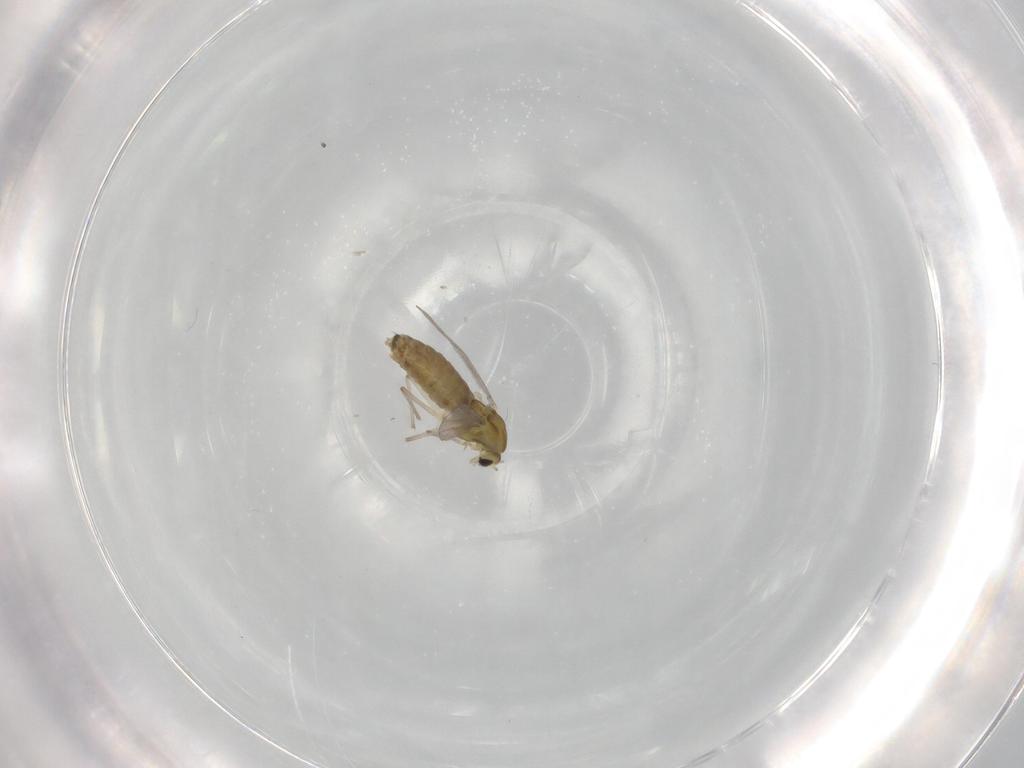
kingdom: Animalia
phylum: Arthropoda
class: Insecta
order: Diptera
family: Chironomidae
